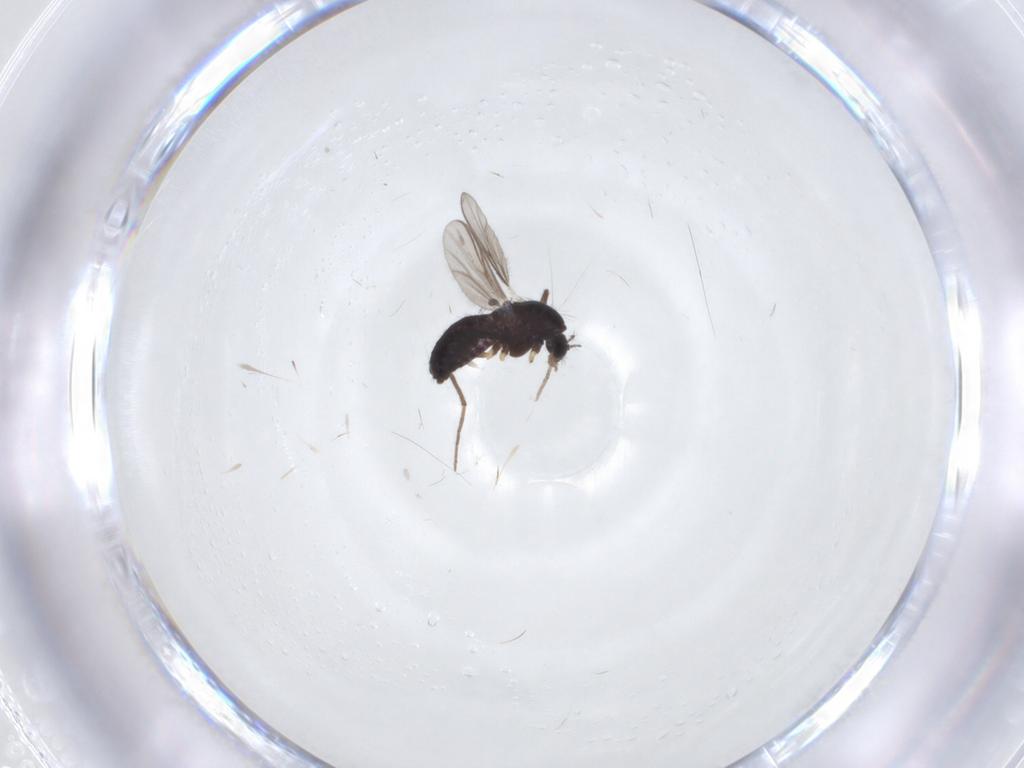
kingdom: Animalia
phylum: Arthropoda
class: Insecta
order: Diptera
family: Chironomidae
